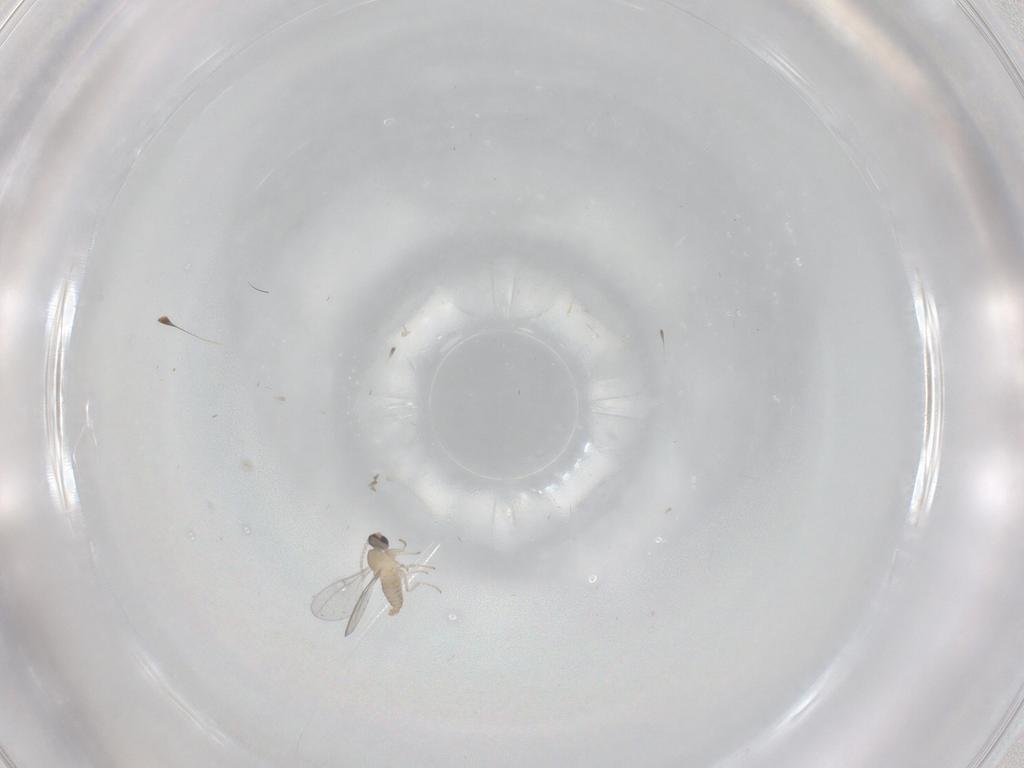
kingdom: Animalia
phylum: Arthropoda
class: Insecta
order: Diptera
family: Cecidomyiidae
